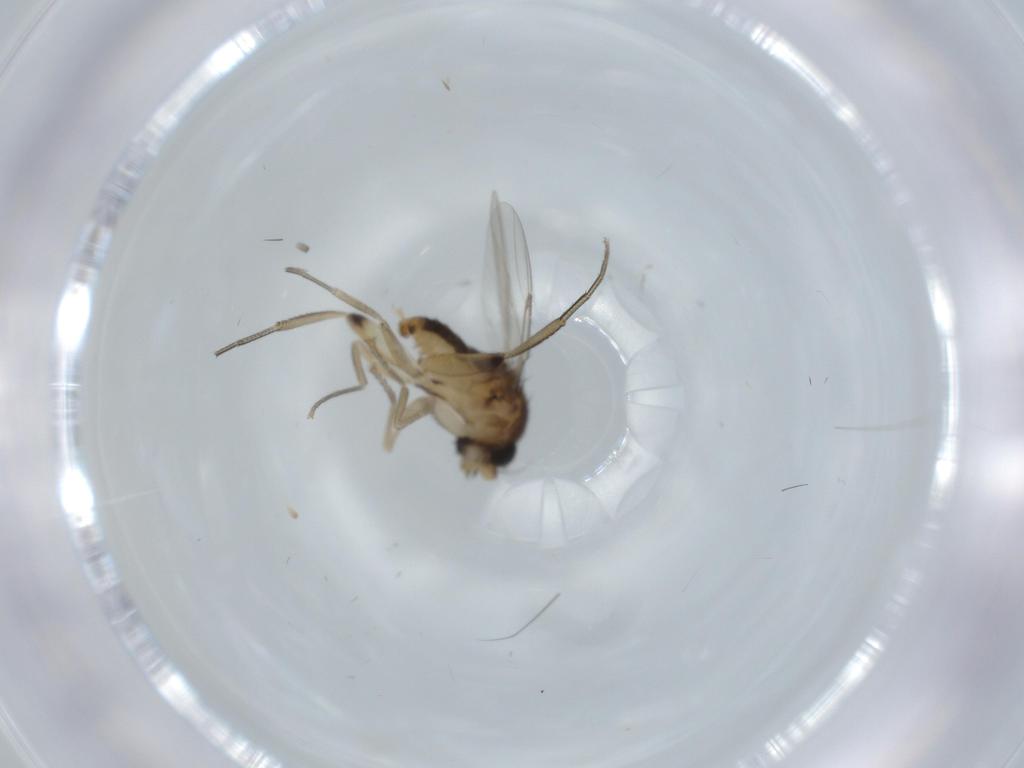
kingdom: Animalia
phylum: Arthropoda
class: Insecta
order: Diptera
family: Phoridae
